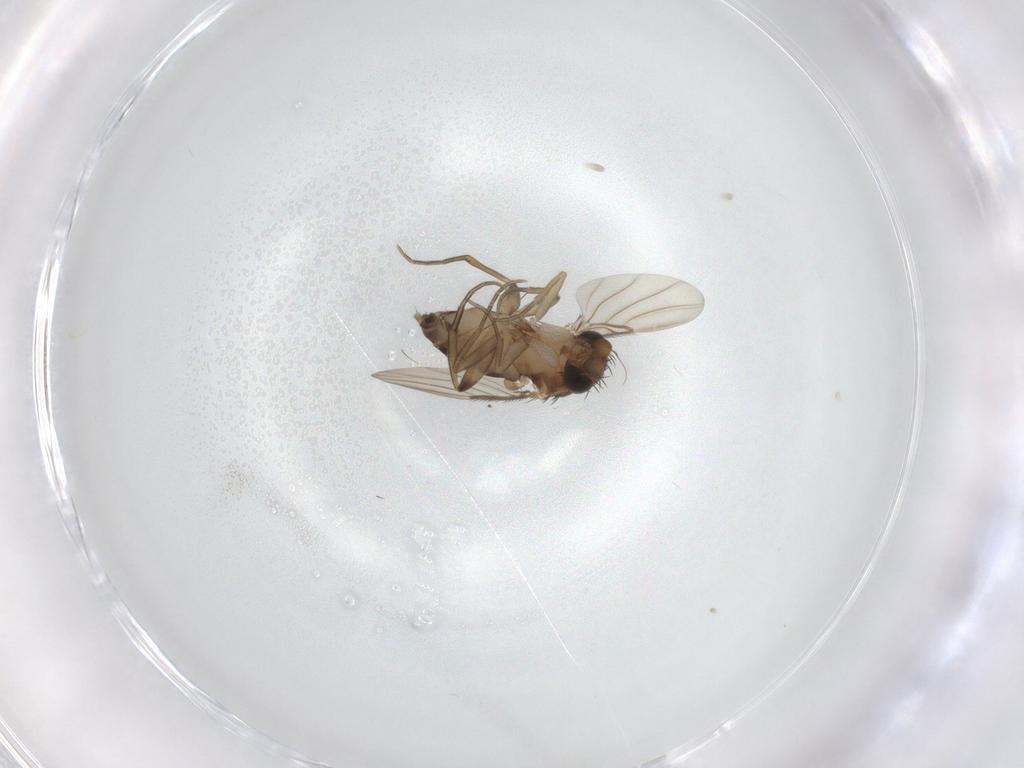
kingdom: Animalia
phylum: Arthropoda
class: Insecta
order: Diptera
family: Phoridae
